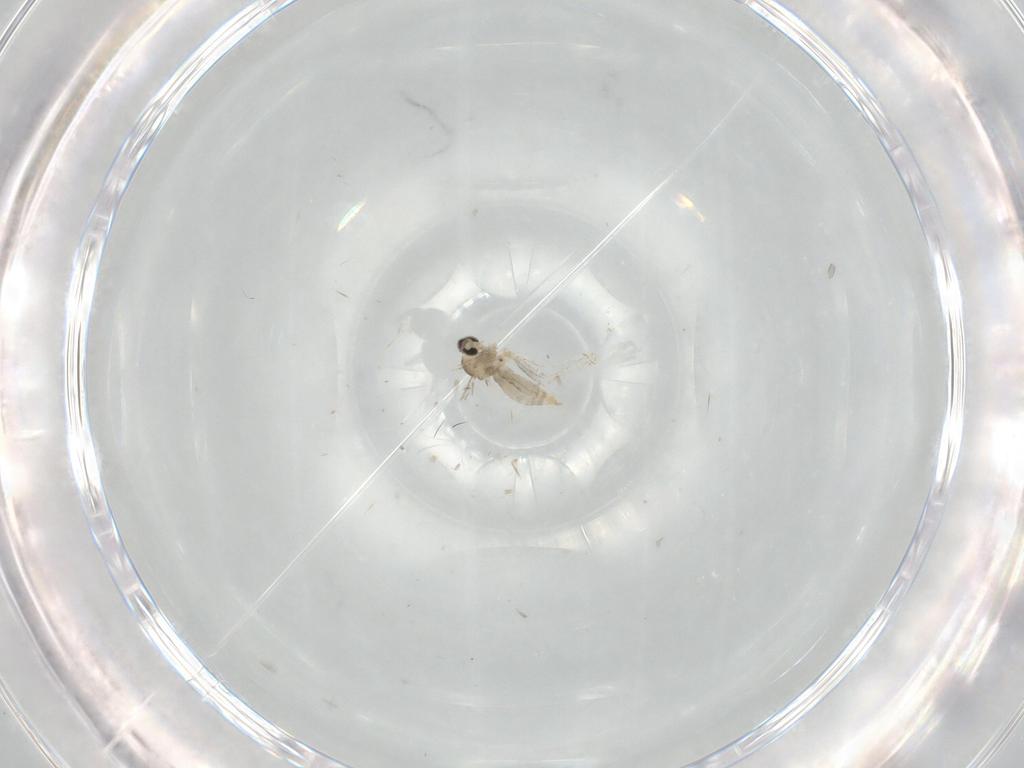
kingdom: Animalia
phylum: Arthropoda
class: Insecta
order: Diptera
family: Cecidomyiidae
